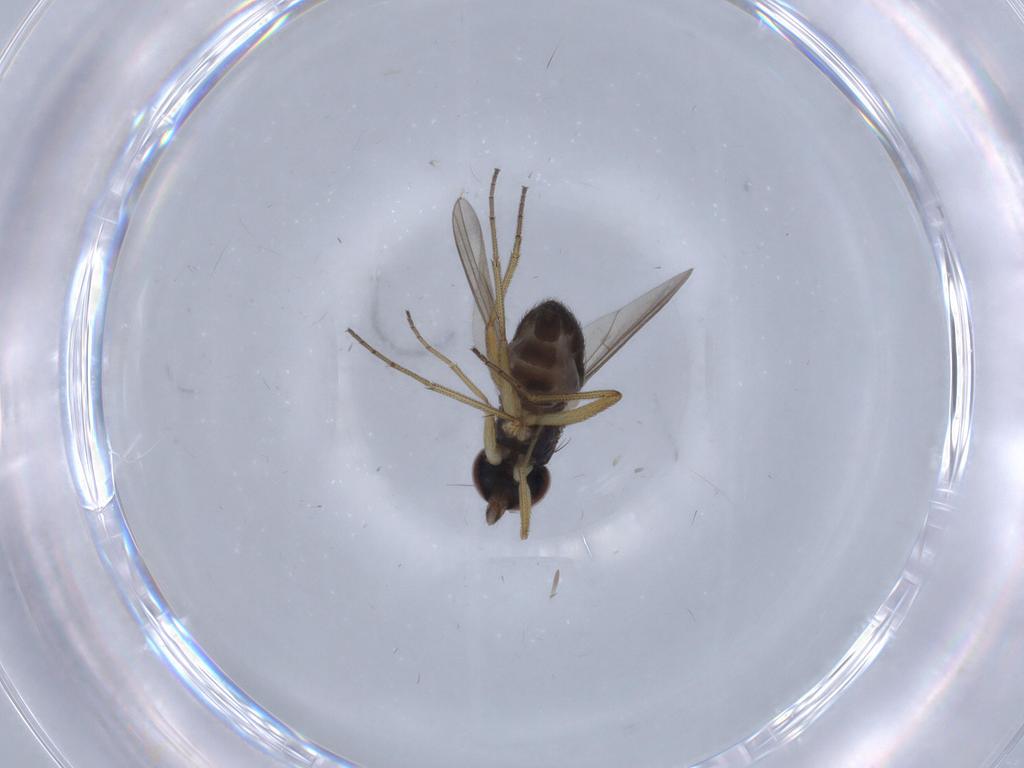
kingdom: Animalia
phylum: Arthropoda
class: Insecta
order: Diptera
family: Dolichopodidae
